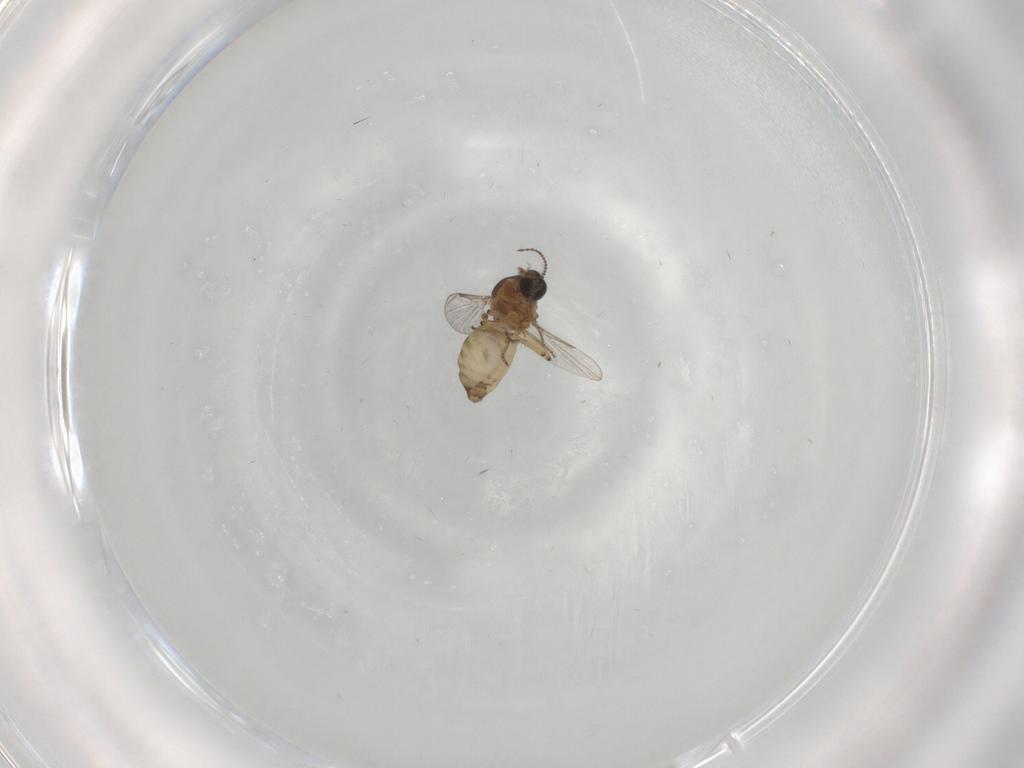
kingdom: Animalia
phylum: Arthropoda
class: Insecta
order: Diptera
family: Ceratopogonidae
